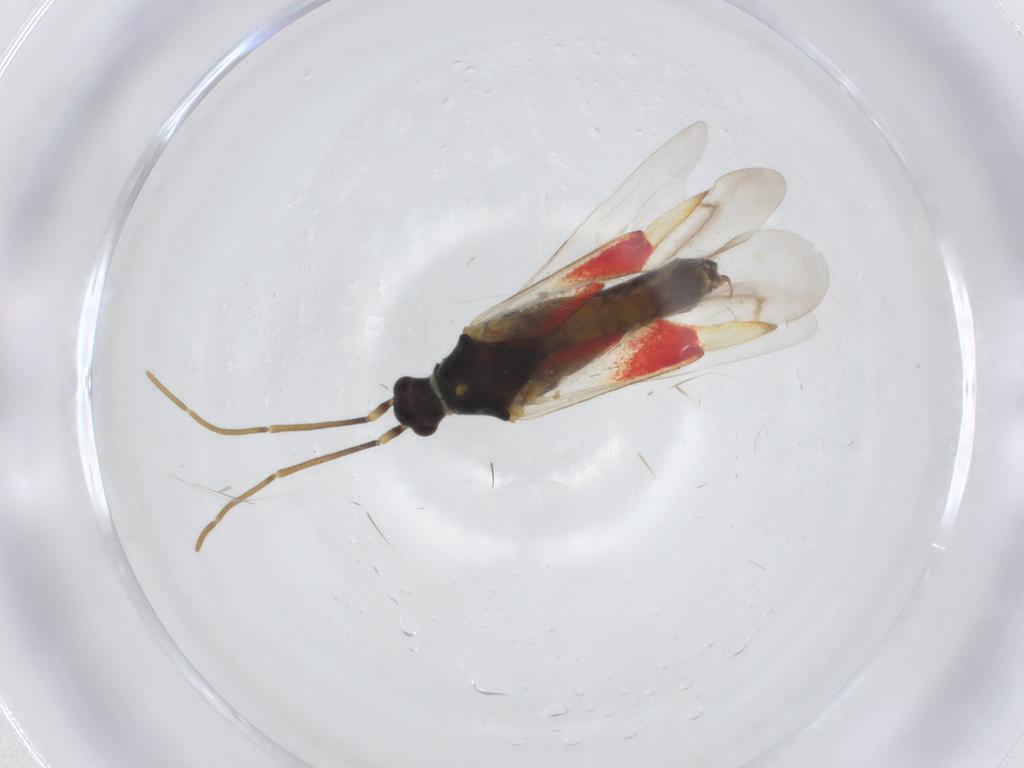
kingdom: Animalia
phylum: Arthropoda
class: Insecta
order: Hemiptera
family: Miridae
